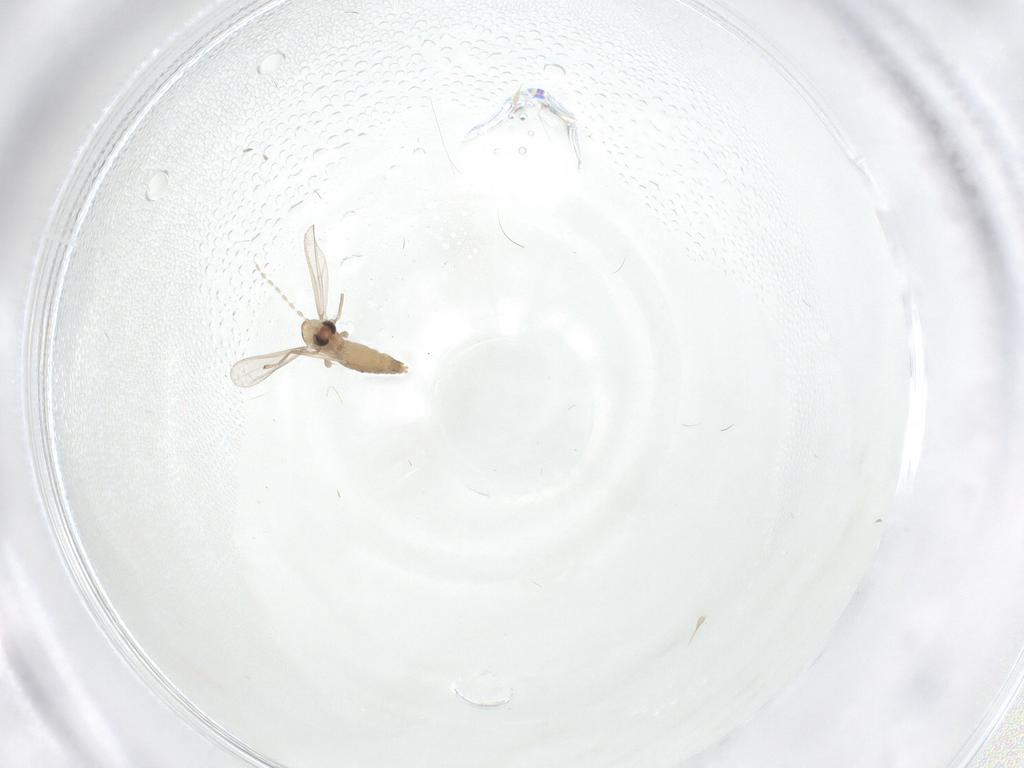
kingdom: Animalia
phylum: Arthropoda
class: Insecta
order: Diptera
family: Chironomidae
